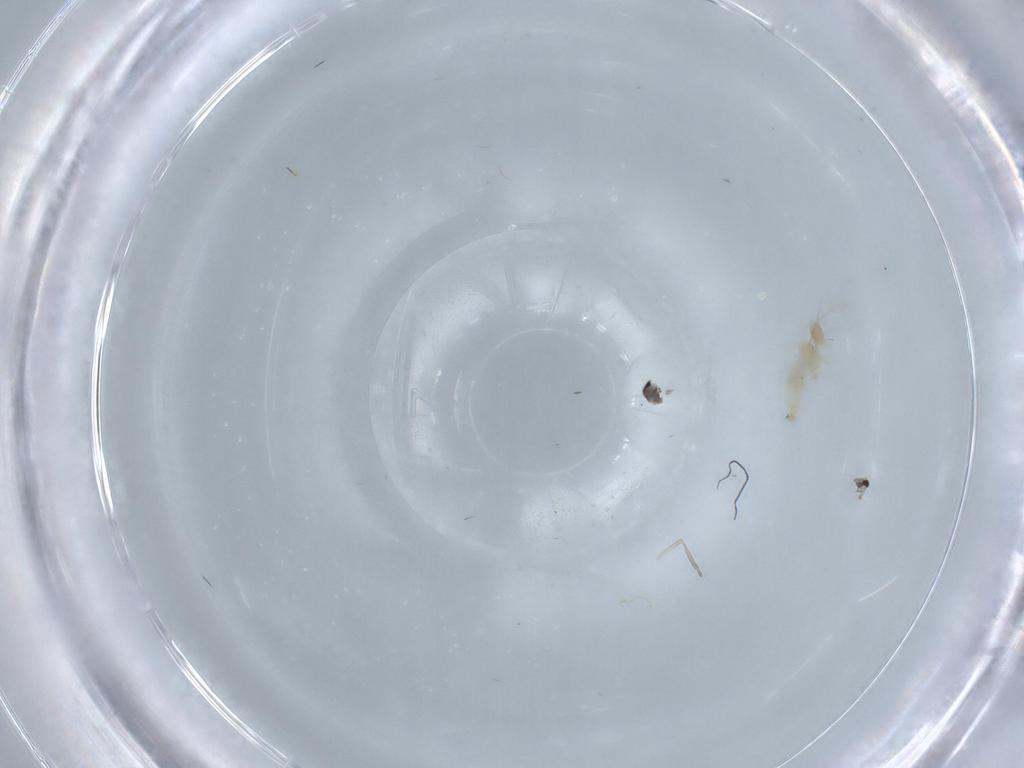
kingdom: Animalia
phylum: Arthropoda
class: Insecta
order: Diptera
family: Cecidomyiidae
